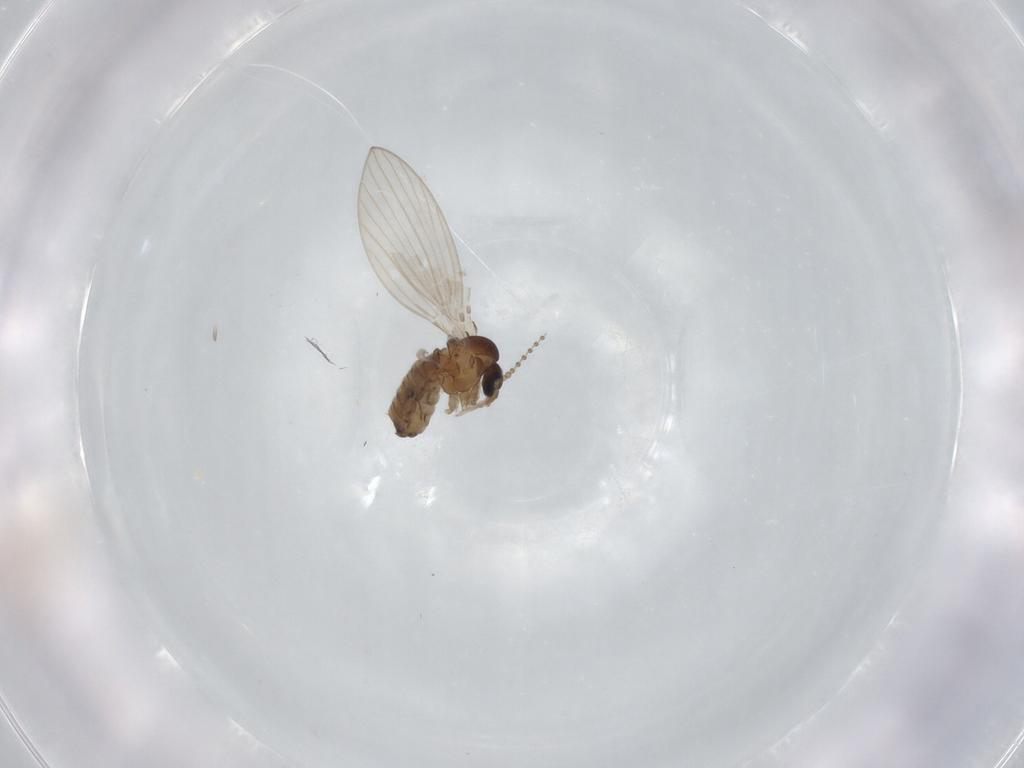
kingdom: Animalia
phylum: Arthropoda
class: Insecta
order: Diptera
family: Psychodidae
